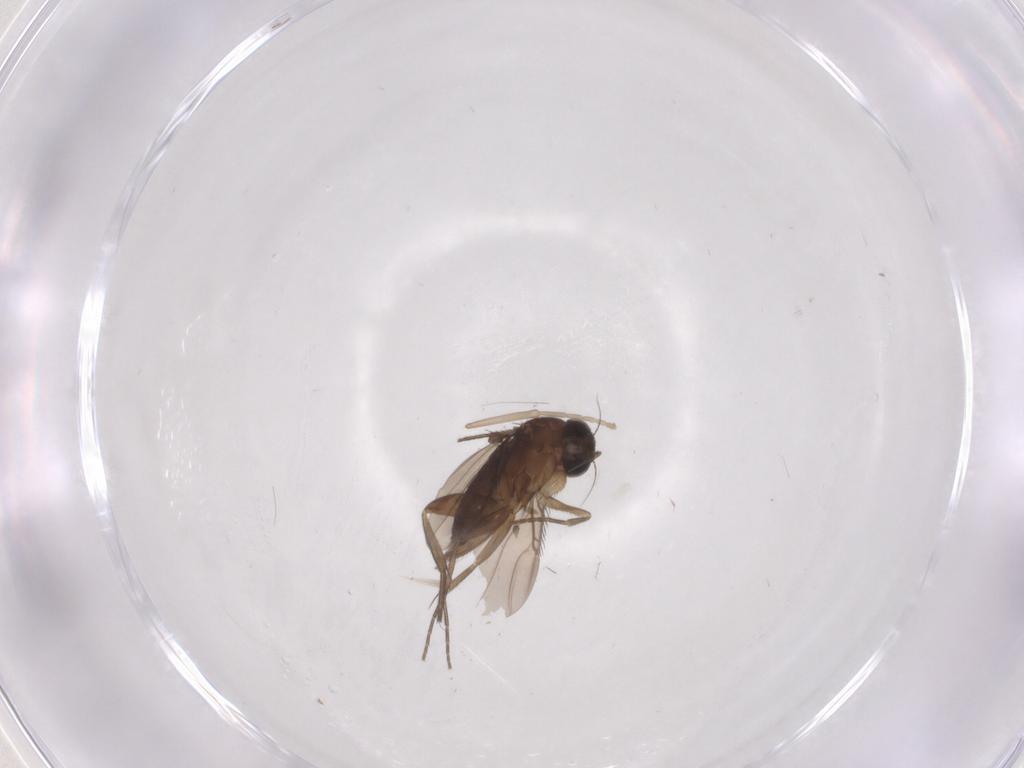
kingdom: Animalia
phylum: Arthropoda
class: Insecta
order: Diptera
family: Phoridae
